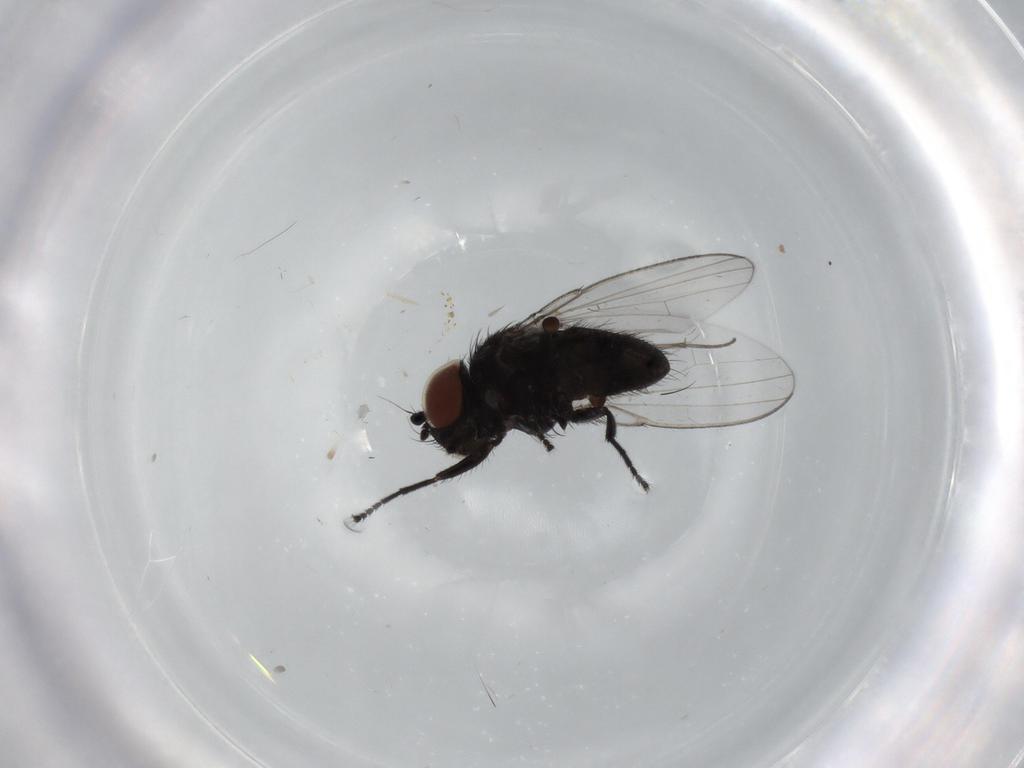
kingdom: Animalia
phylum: Arthropoda
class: Insecta
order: Diptera
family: Milichiidae
